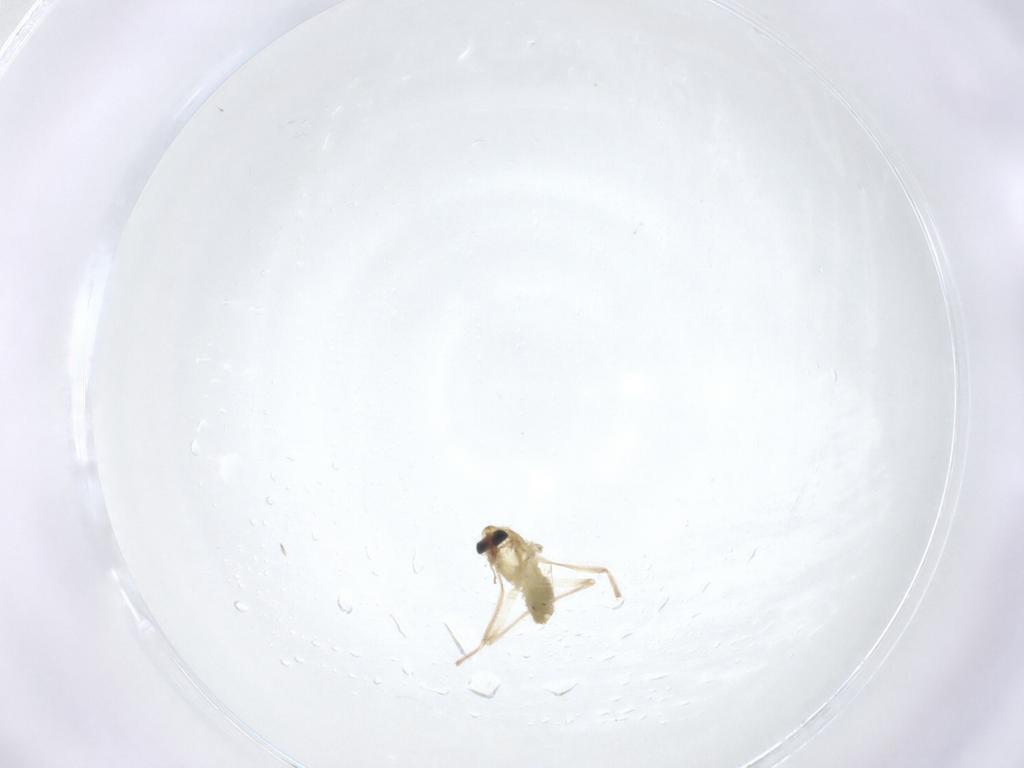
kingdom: Animalia
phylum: Arthropoda
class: Insecta
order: Diptera
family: Chironomidae
